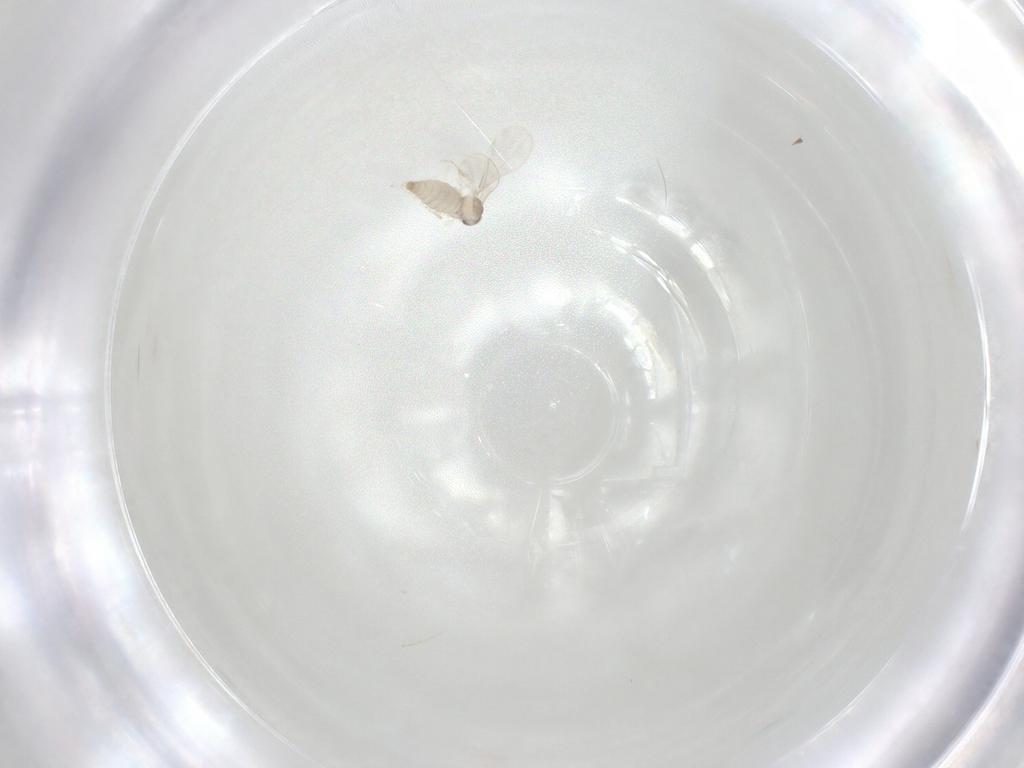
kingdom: Animalia
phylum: Arthropoda
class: Insecta
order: Diptera
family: Cecidomyiidae
